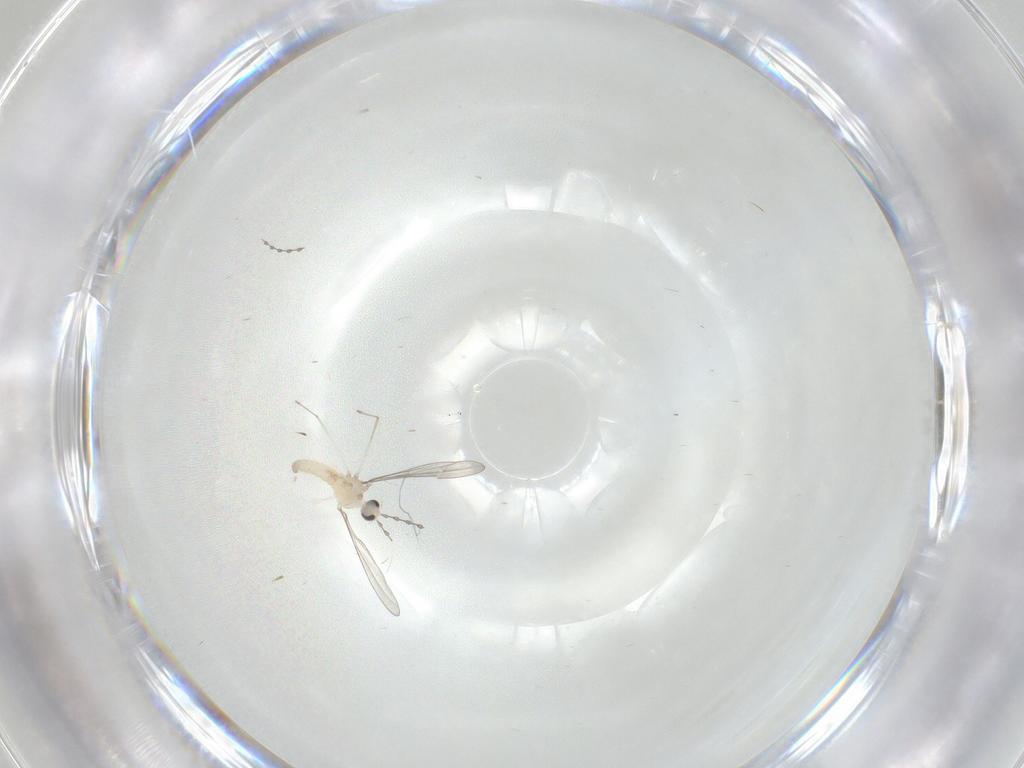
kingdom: Animalia
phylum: Arthropoda
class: Insecta
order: Diptera
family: Cecidomyiidae
